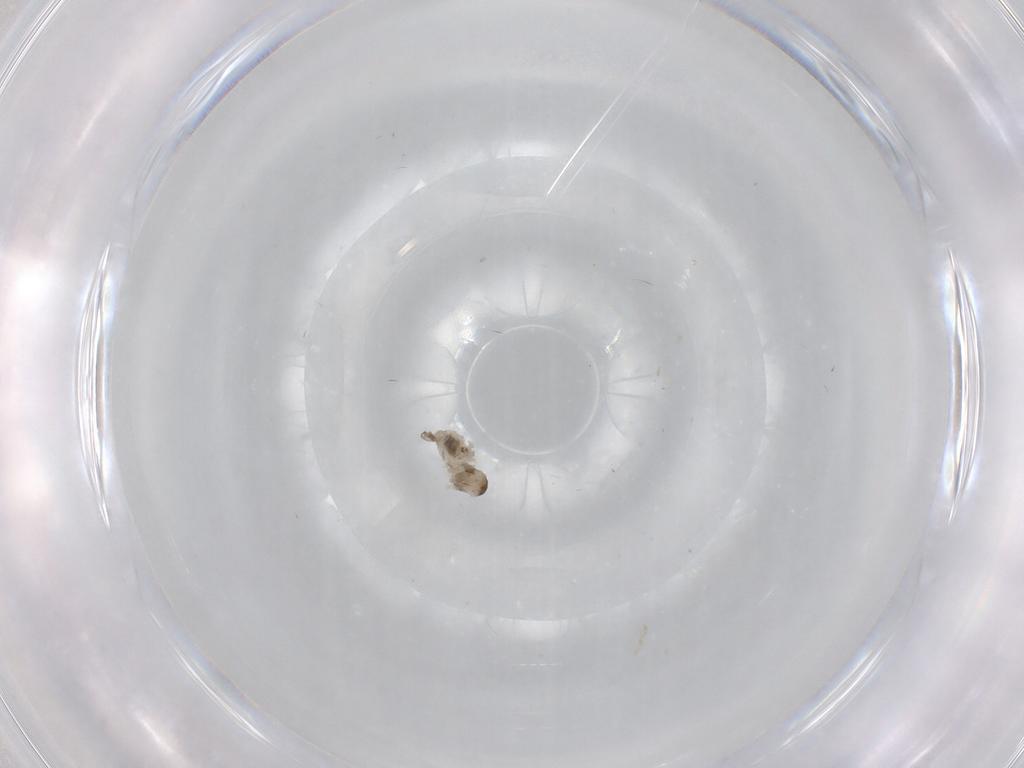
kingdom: Animalia
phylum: Arthropoda
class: Insecta
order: Diptera
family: Cecidomyiidae
